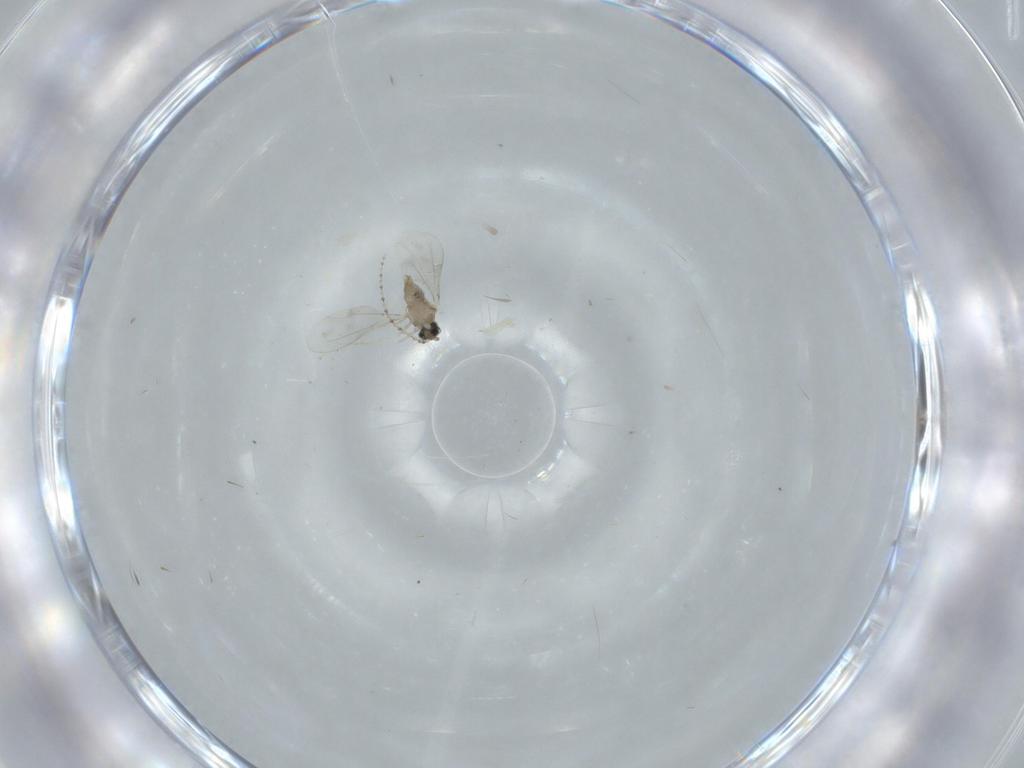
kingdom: Animalia
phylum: Arthropoda
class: Insecta
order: Diptera
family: Cecidomyiidae
